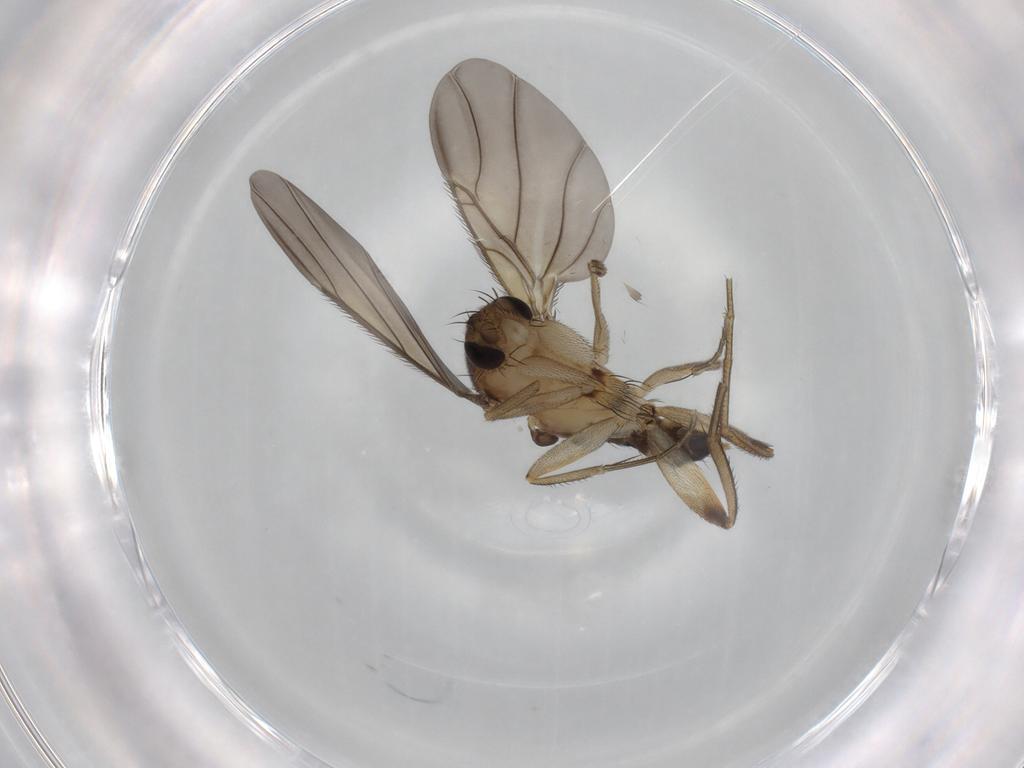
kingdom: Animalia
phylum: Arthropoda
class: Insecta
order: Diptera
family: Phoridae
